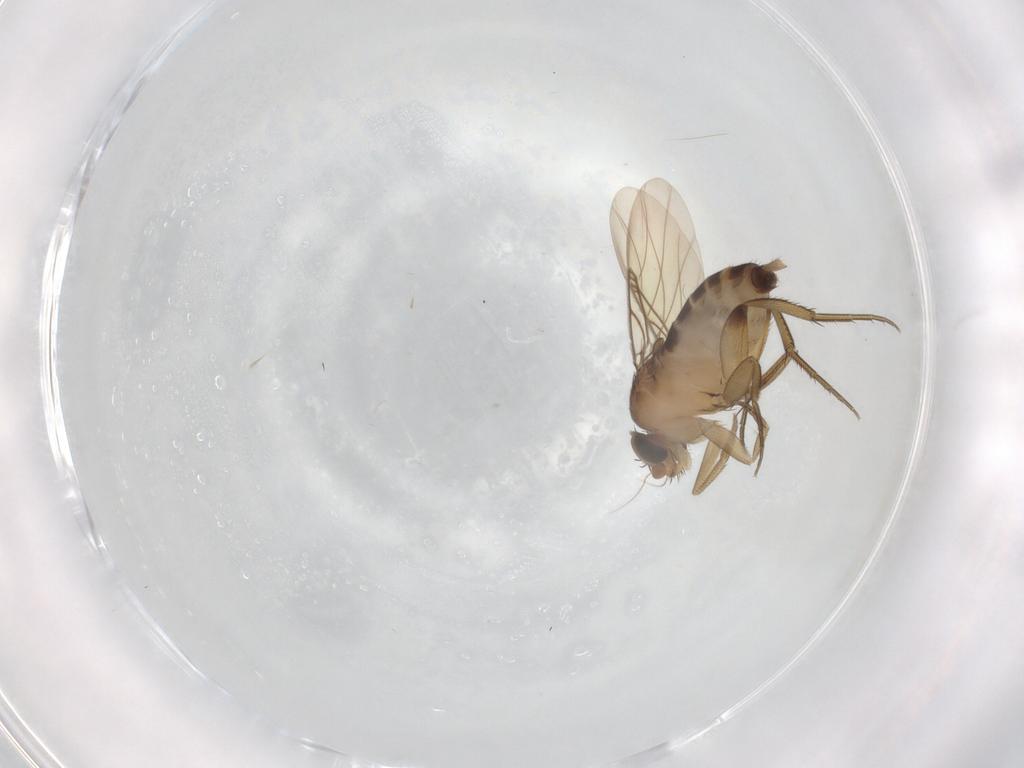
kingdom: Animalia
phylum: Arthropoda
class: Insecta
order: Diptera
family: Phoridae
